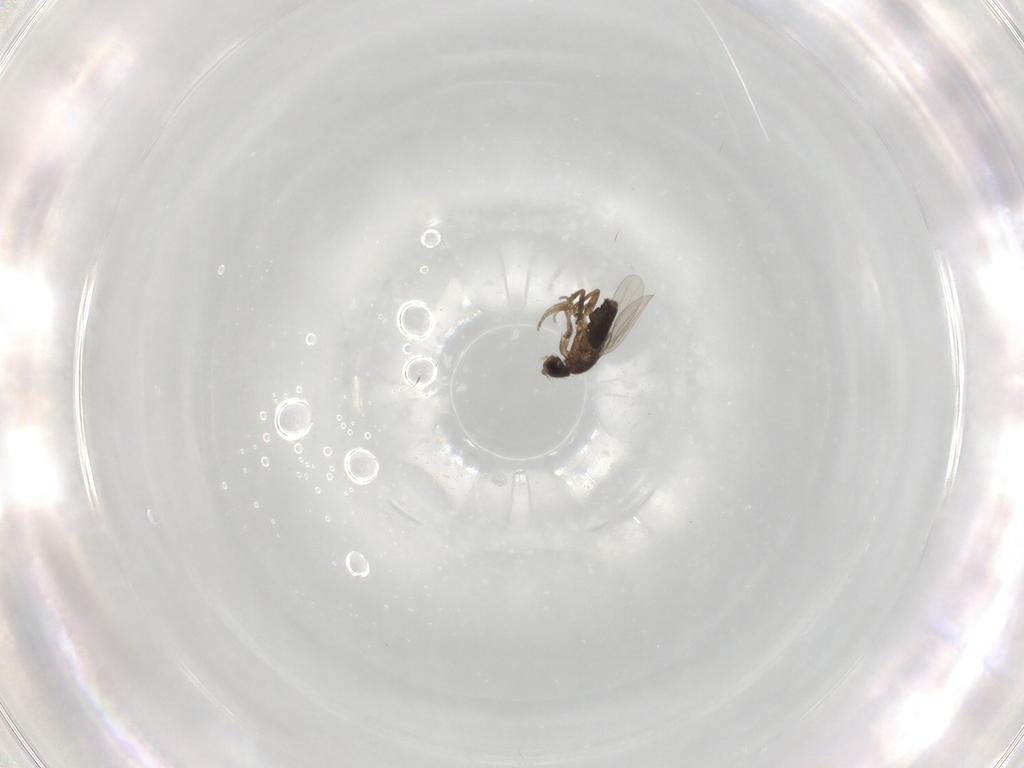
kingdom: Animalia
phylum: Arthropoda
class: Insecta
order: Diptera
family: Phoridae
